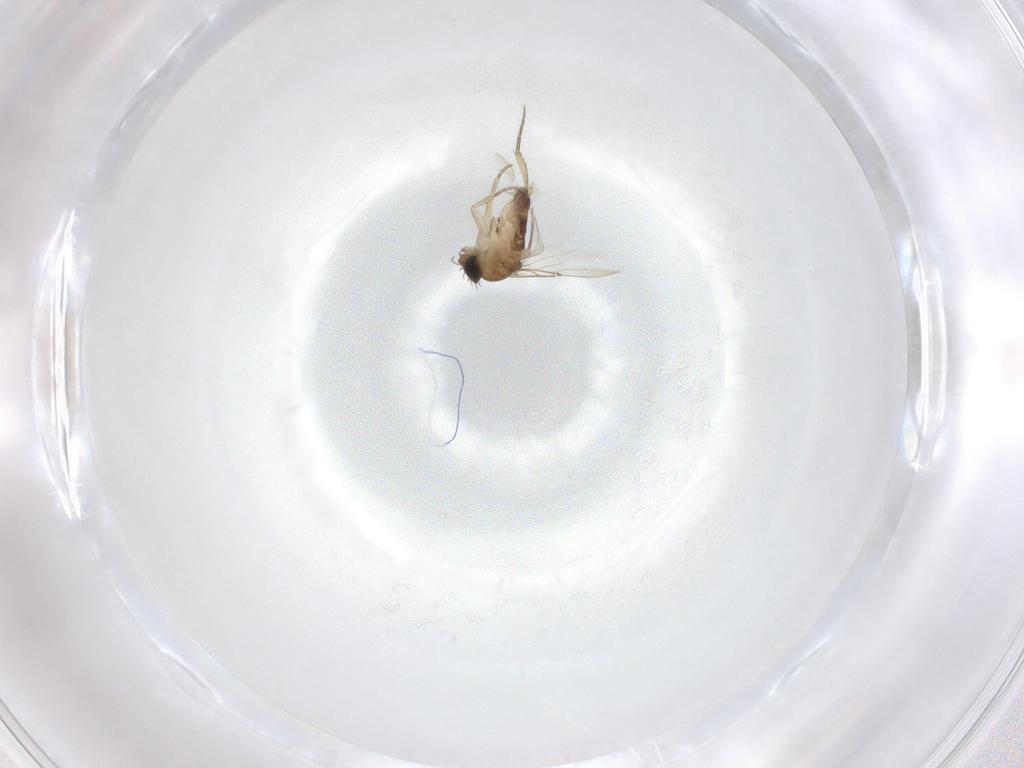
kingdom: Animalia
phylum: Arthropoda
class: Insecta
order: Diptera
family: Phoridae
